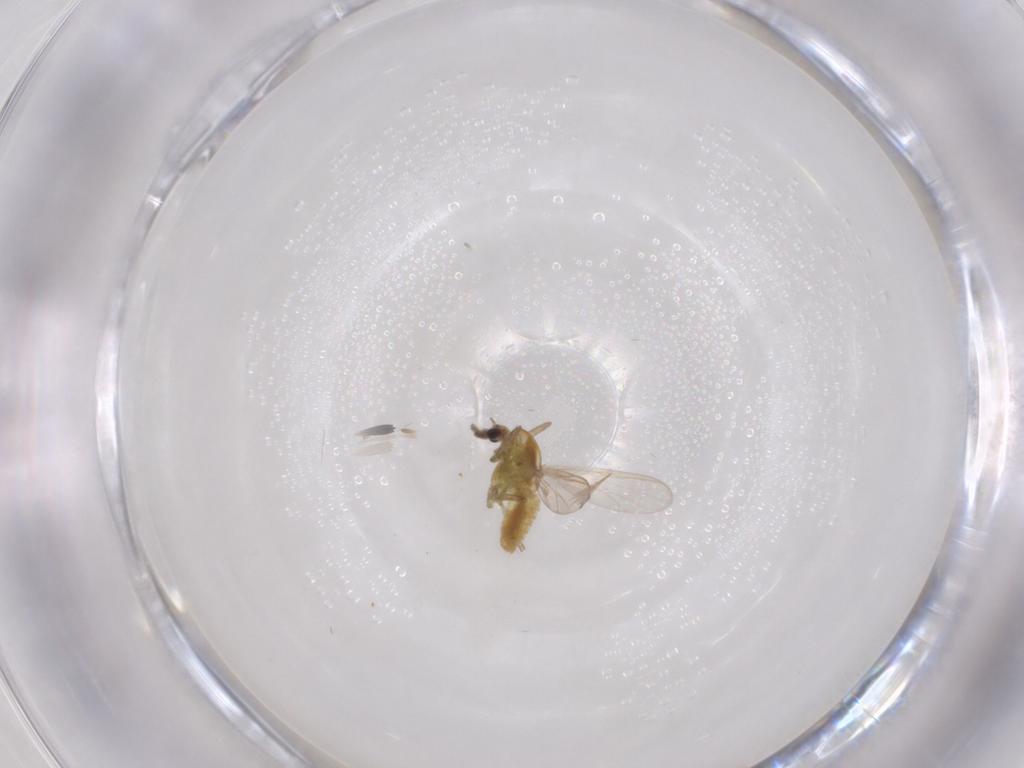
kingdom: Animalia
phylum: Arthropoda
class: Insecta
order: Diptera
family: Chironomidae
